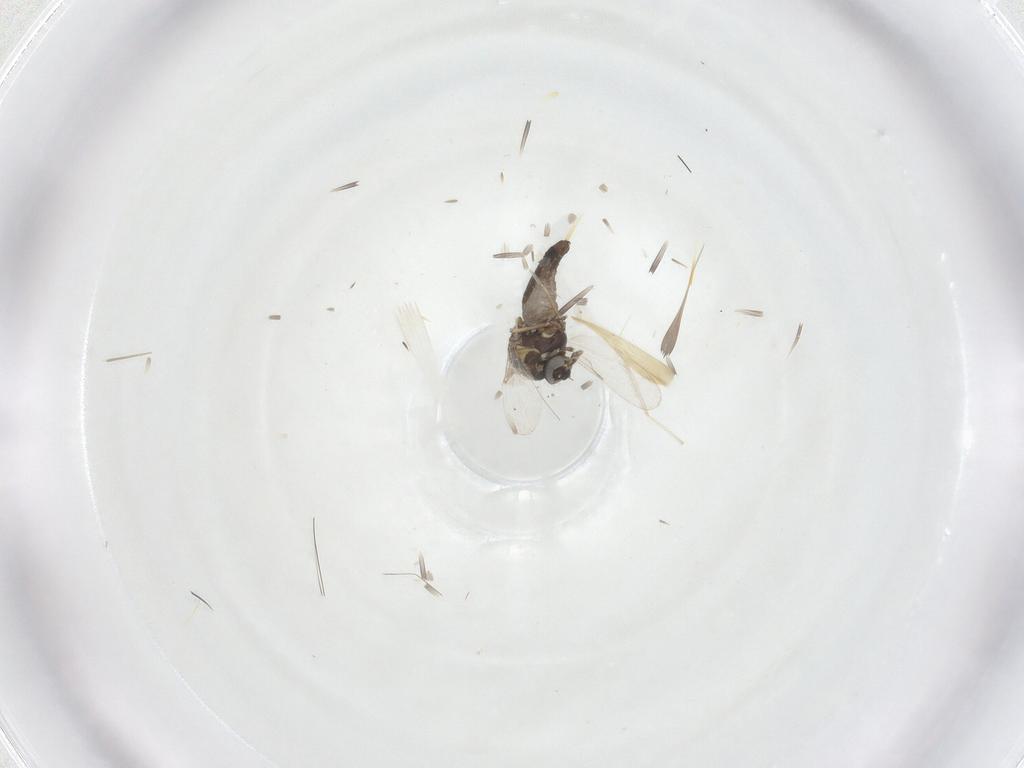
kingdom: Animalia
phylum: Arthropoda
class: Insecta
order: Diptera
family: Ceratopogonidae
